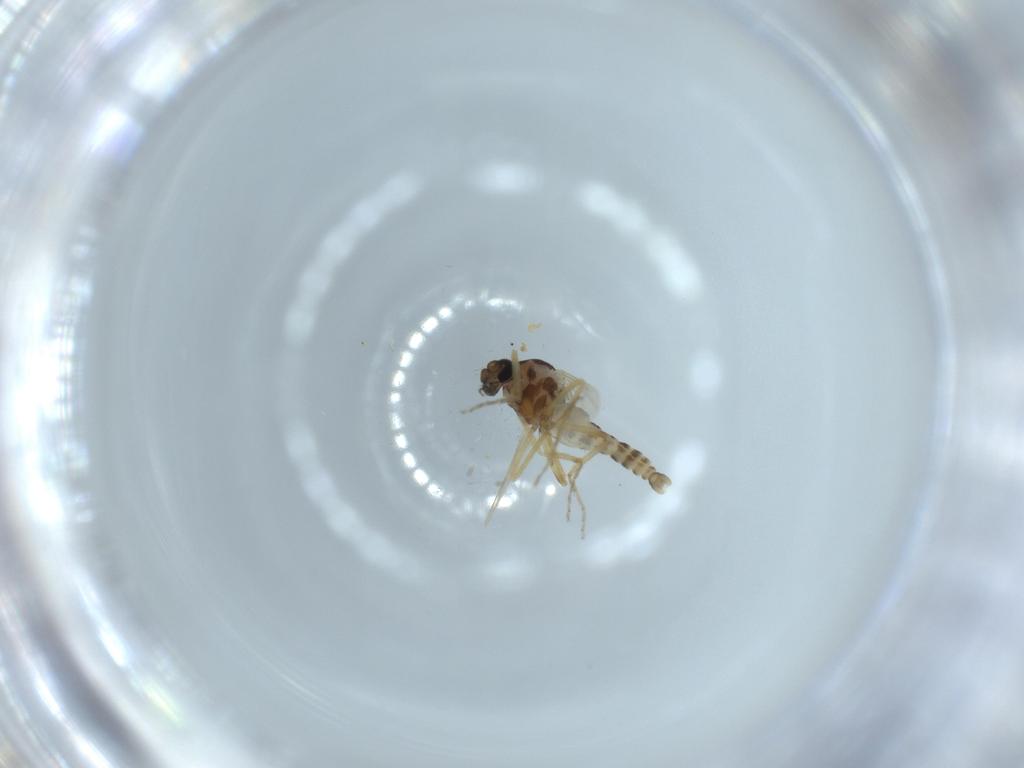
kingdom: Animalia
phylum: Arthropoda
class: Insecta
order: Diptera
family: Ceratopogonidae
